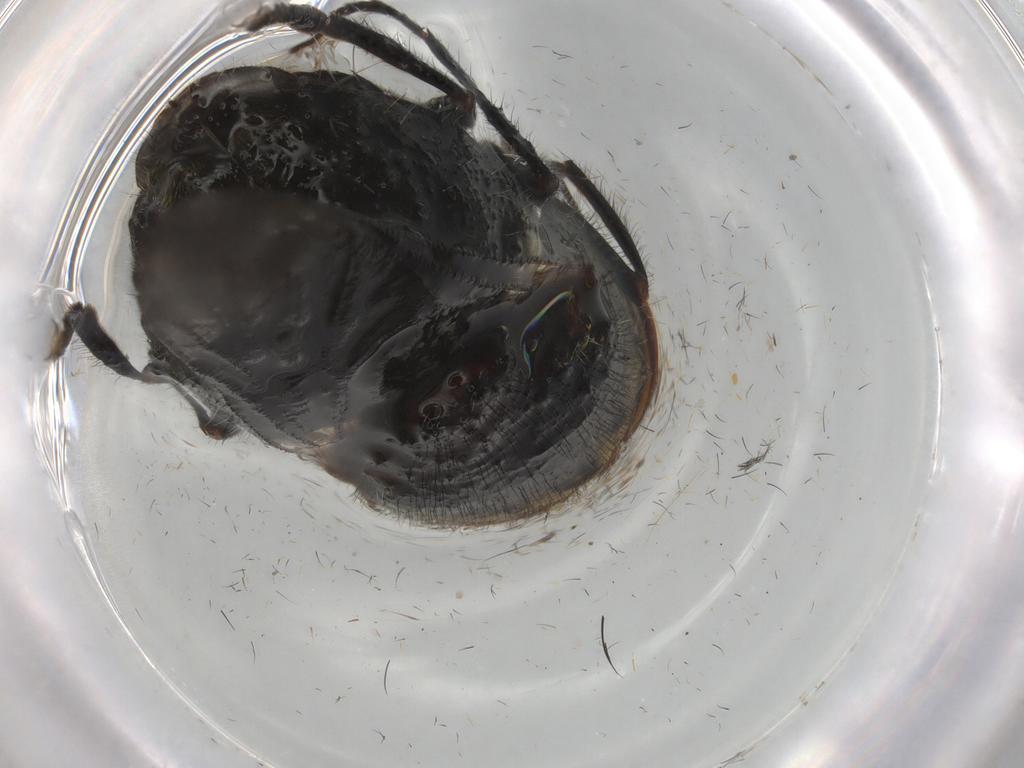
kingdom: Animalia
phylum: Arthropoda
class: Insecta
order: Diptera
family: Stratiomyidae
